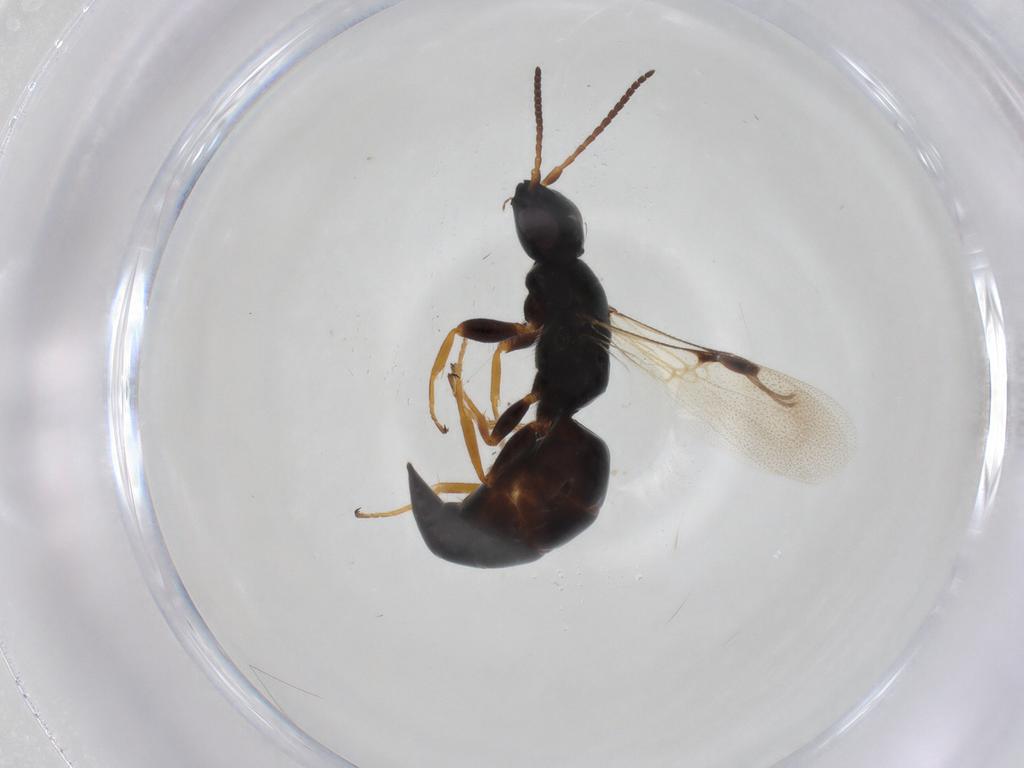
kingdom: Animalia
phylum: Arthropoda
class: Insecta
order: Hymenoptera
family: Bethylidae
